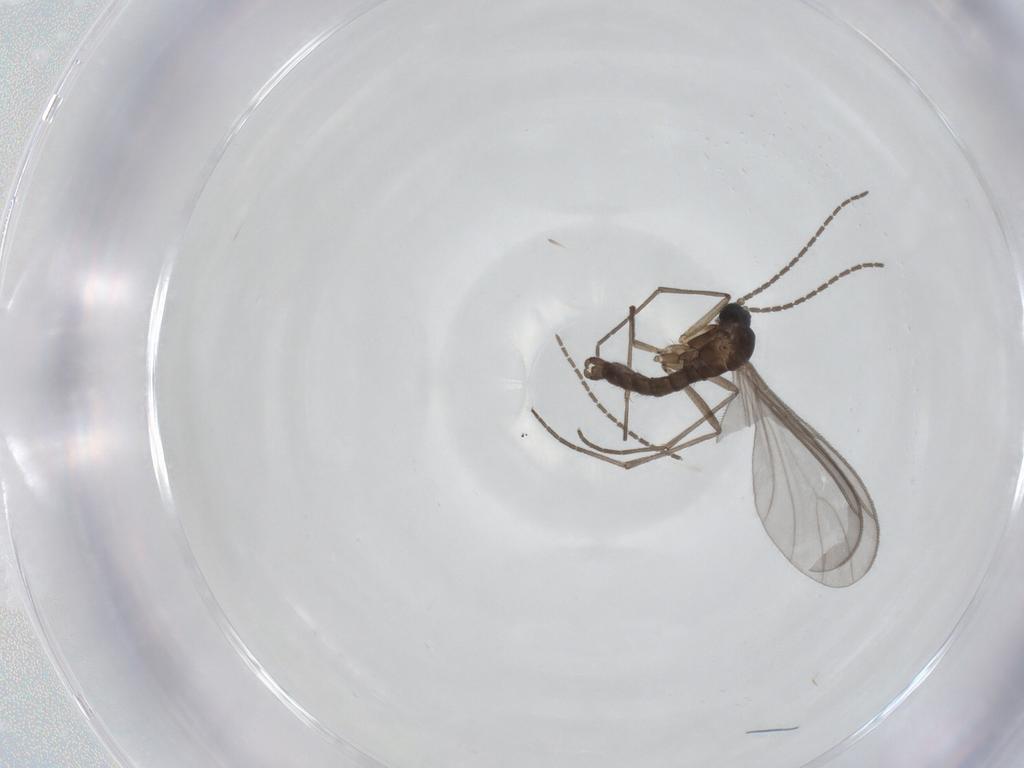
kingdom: Animalia
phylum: Arthropoda
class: Insecta
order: Diptera
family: Sciaridae
